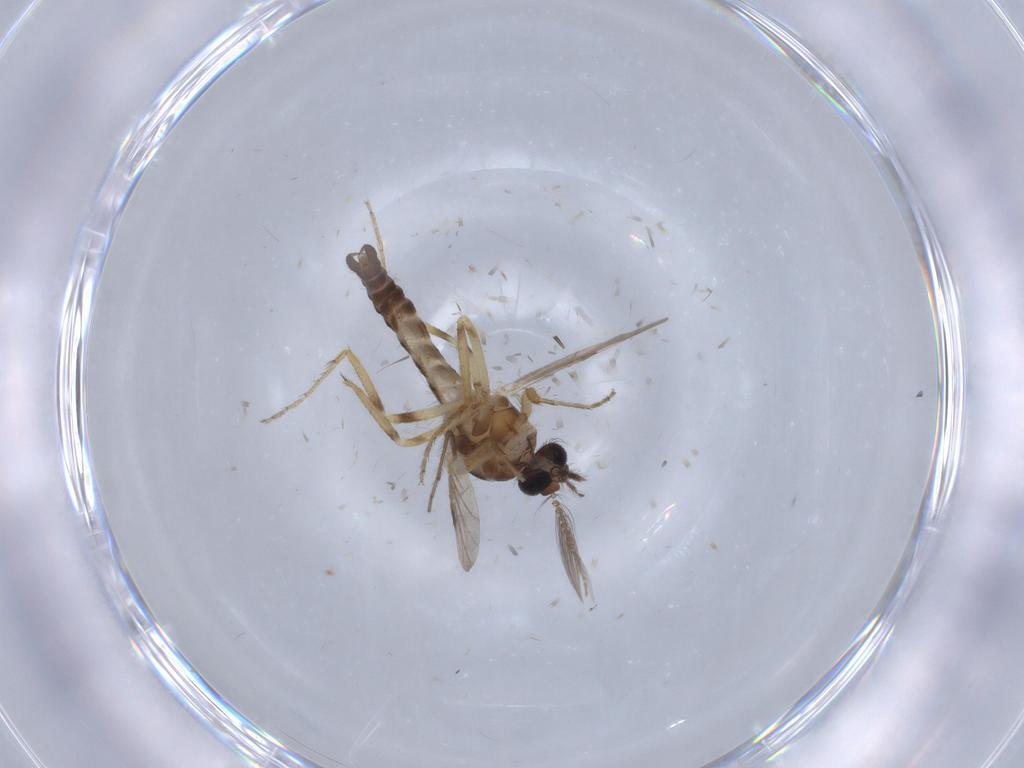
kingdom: Animalia
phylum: Arthropoda
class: Insecta
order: Diptera
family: Ceratopogonidae
